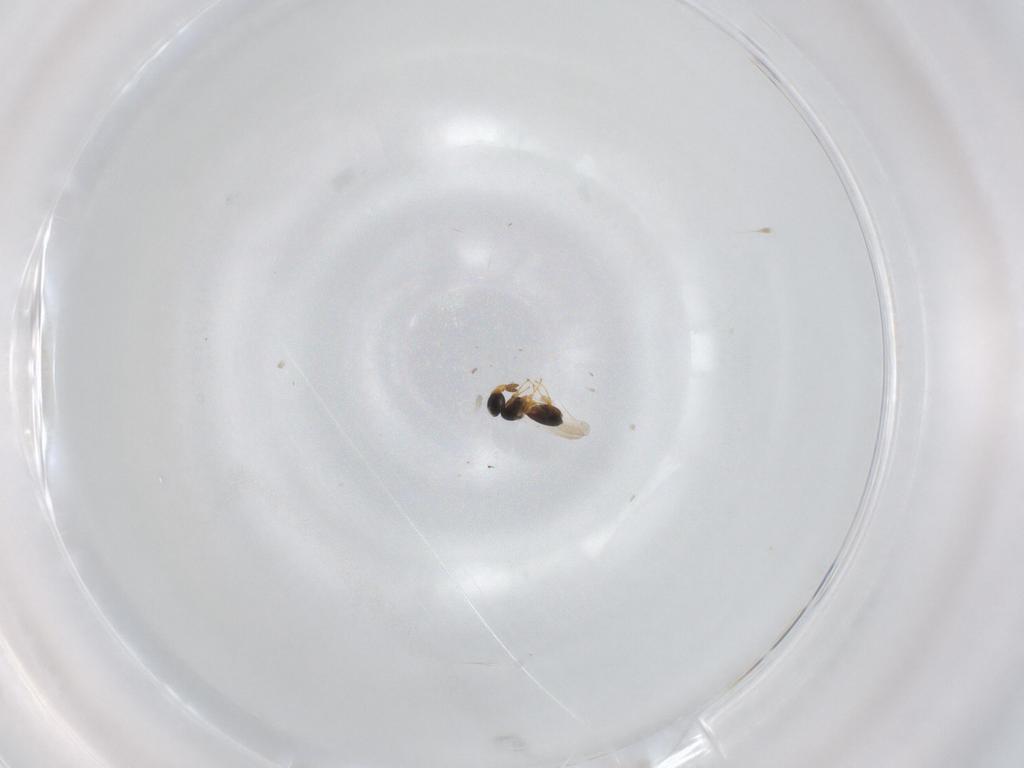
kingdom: Animalia
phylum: Arthropoda
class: Insecta
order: Hymenoptera
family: Platygastridae
